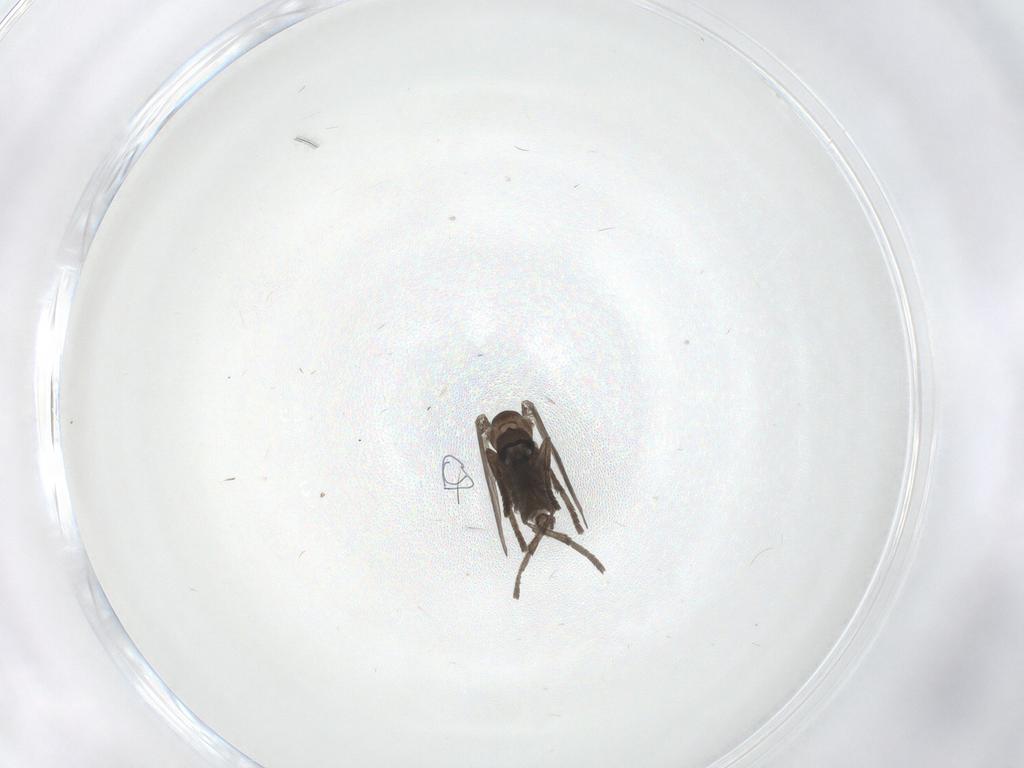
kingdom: Animalia
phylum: Arthropoda
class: Insecta
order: Diptera
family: Psychodidae
